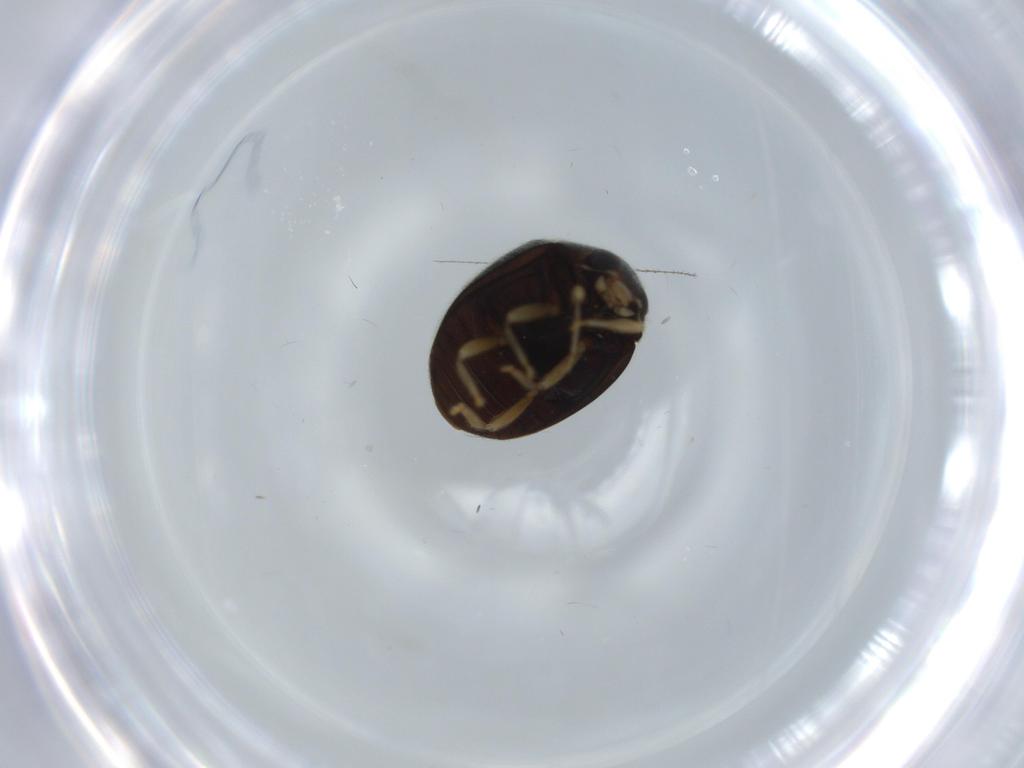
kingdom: Animalia
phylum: Arthropoda
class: Insecta
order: Coleoptera
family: Coccinellidae
